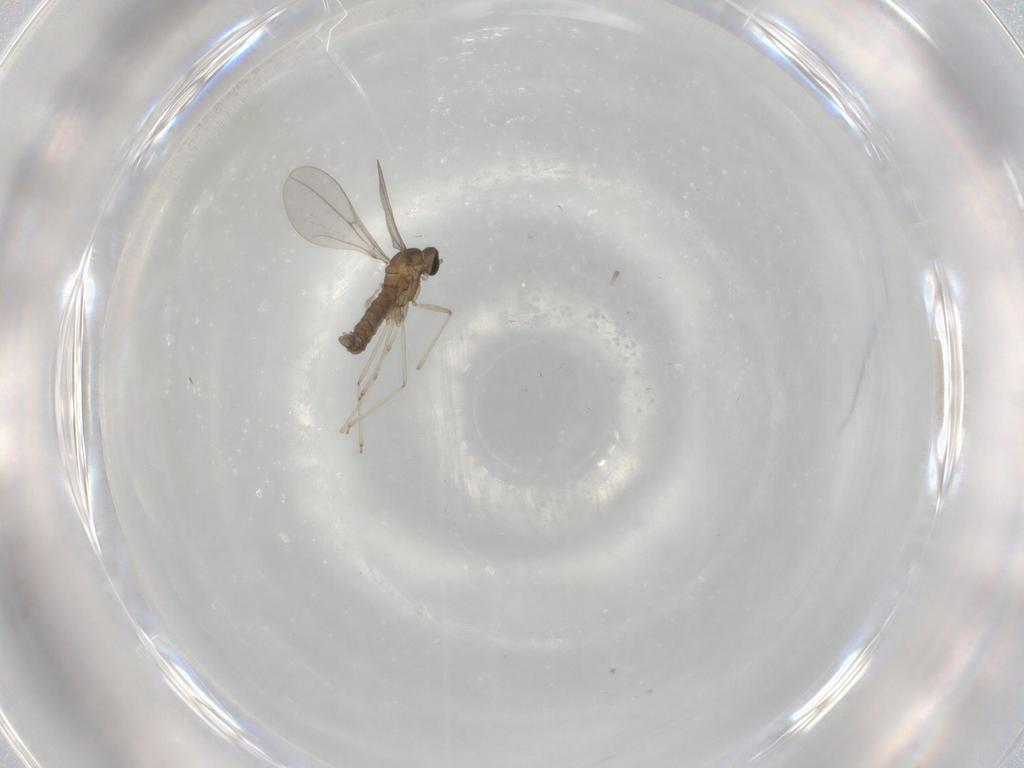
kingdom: Animalia
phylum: Arthropoda
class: Insecta
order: Diptera
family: Cecidomyiidae
